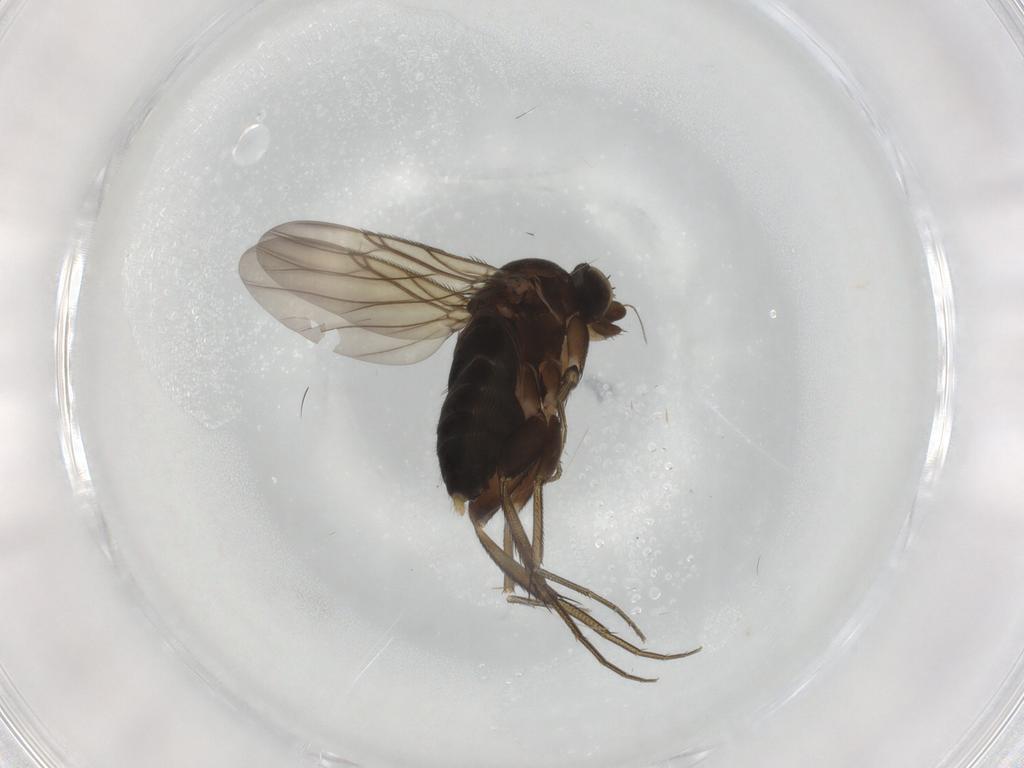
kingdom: Animalia
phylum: Arthropoda
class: Insecta
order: Diptera
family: Phoridae
